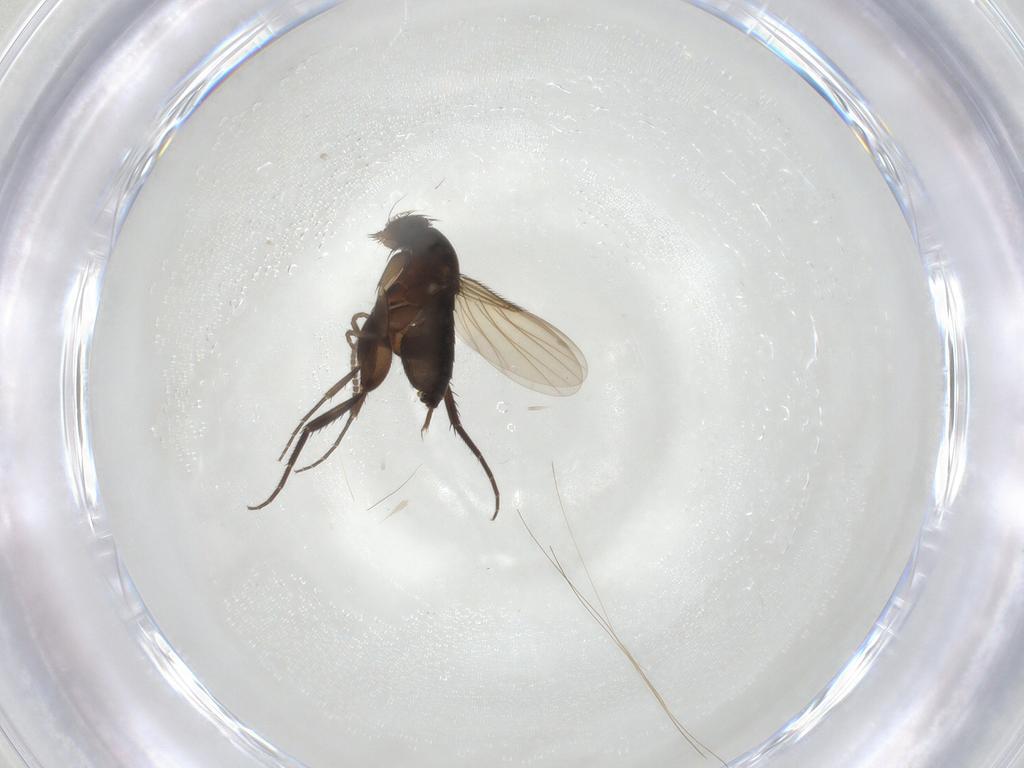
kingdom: Animalia
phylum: Arthropoda
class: Insecta
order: Diptera
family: Phoridae
